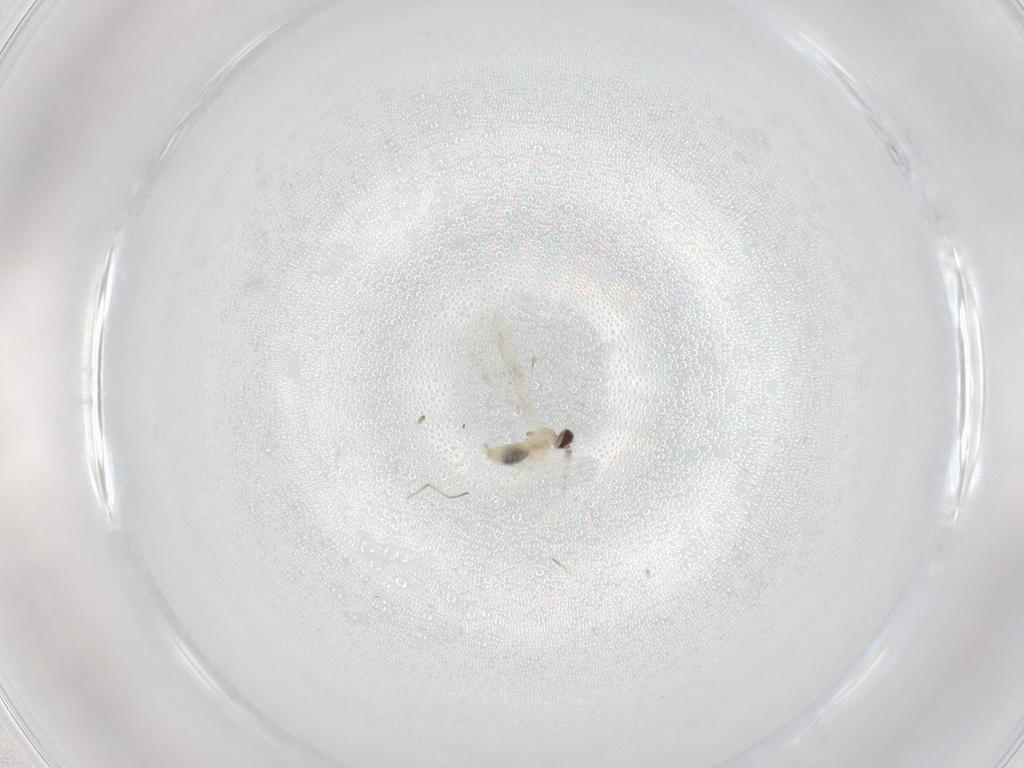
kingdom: Animalia
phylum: Arthropoda
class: Insecta
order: Diptera
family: Cecidomyiidae
